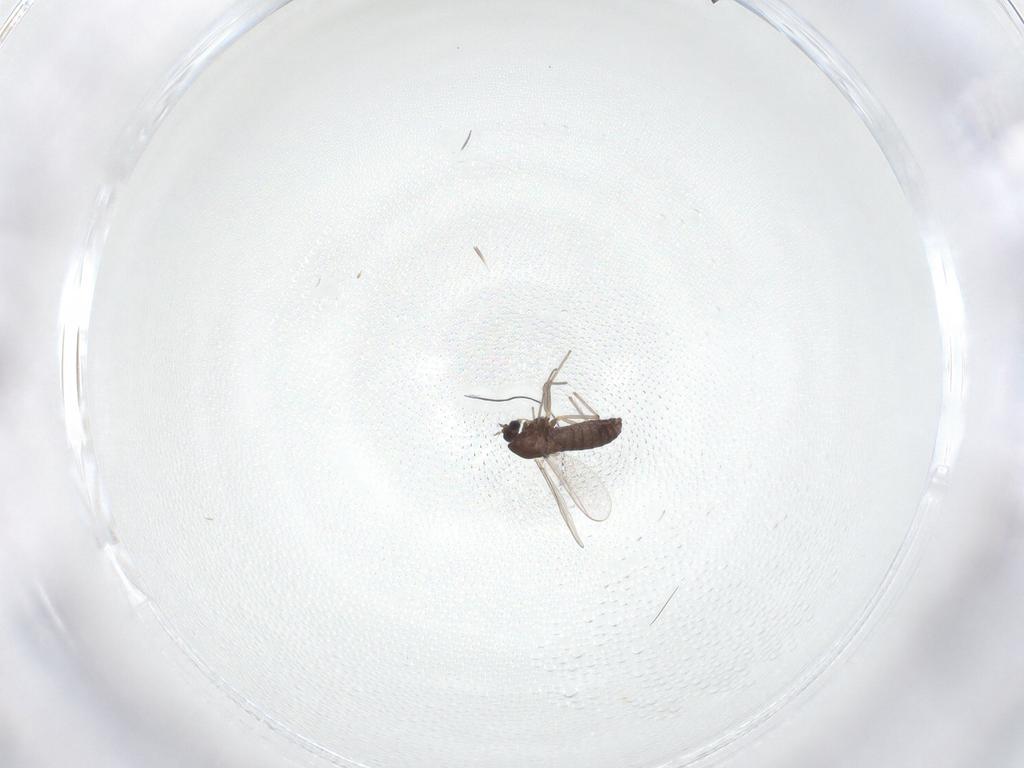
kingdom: Animalia
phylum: Arthropoda
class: Insecta
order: Diptera
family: Chironomidae
